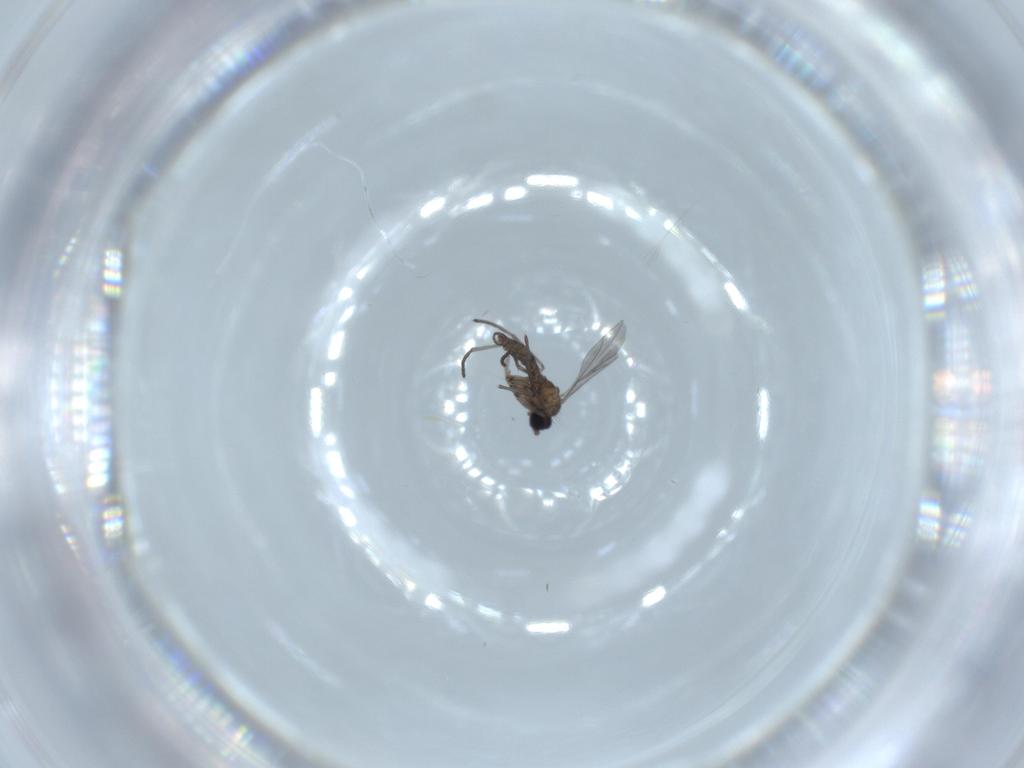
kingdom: Animalia
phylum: Arthropoda
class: Insecta
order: Diptera
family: Sciaridae
